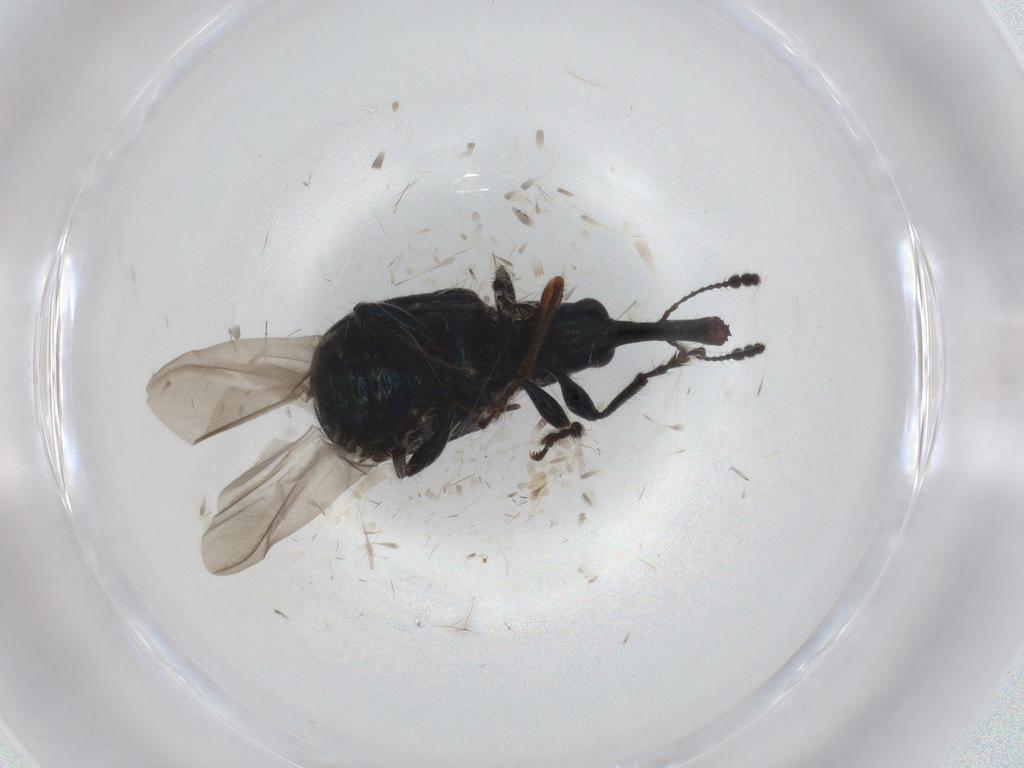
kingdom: Animalia
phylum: Arthropoda
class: Insecta
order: Coleoptera
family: Attelabidae
